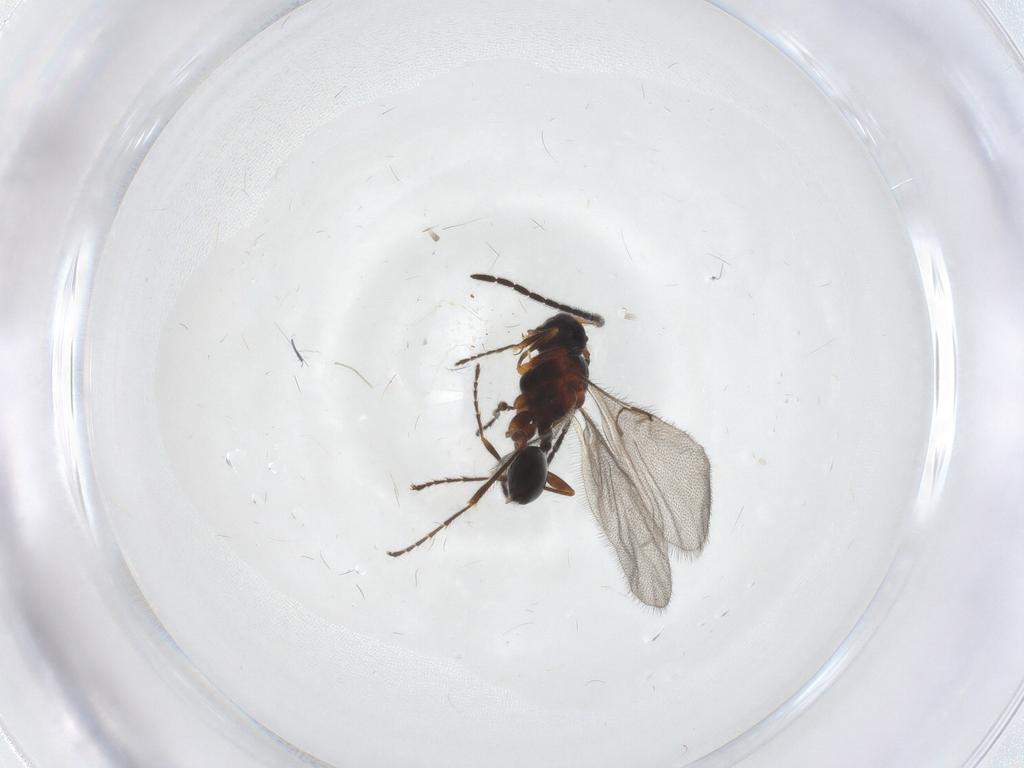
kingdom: Animalia
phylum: Arthropoda
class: Insecta
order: Hymenoptera
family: Diapriidae
